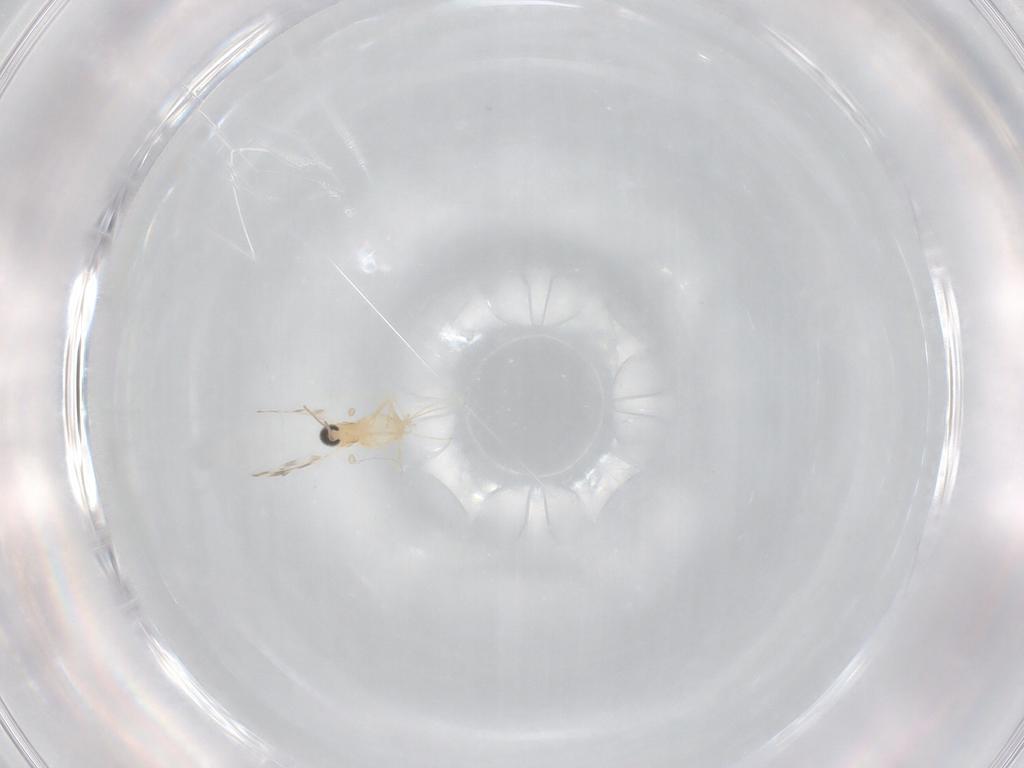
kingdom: Animalia
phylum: Arthropoda
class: Insecta
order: Diptera
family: Cecidomyiidae
